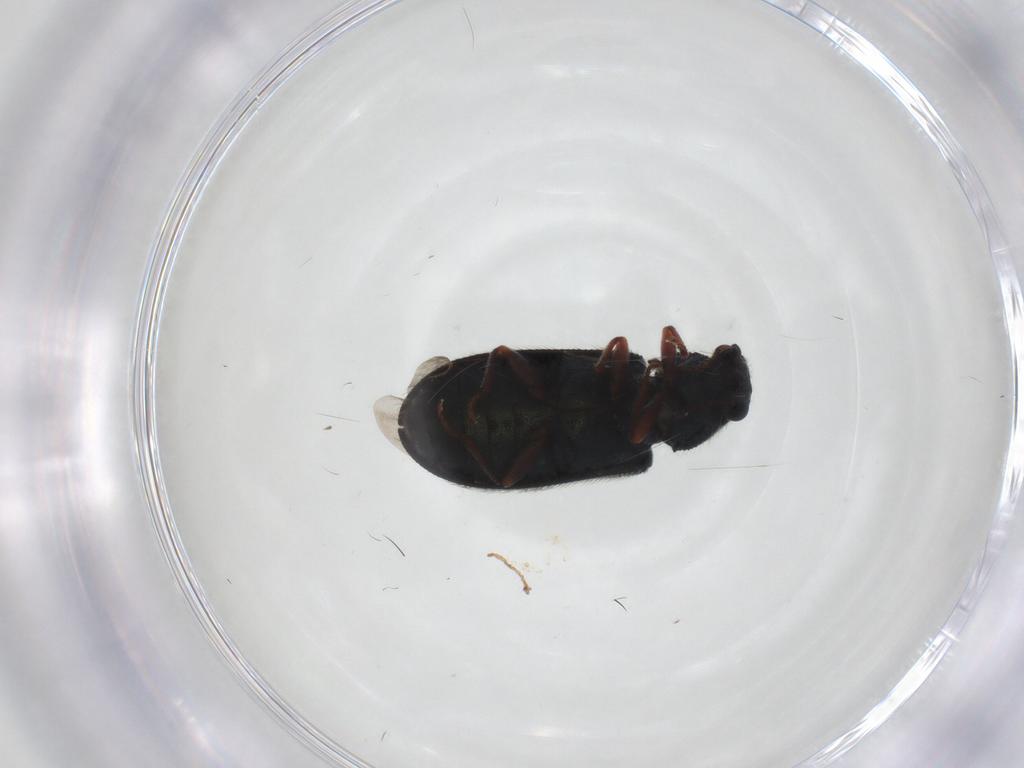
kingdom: Animalia
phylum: Arthropoda
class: Insecta
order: Coleoptera
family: Melyridae
